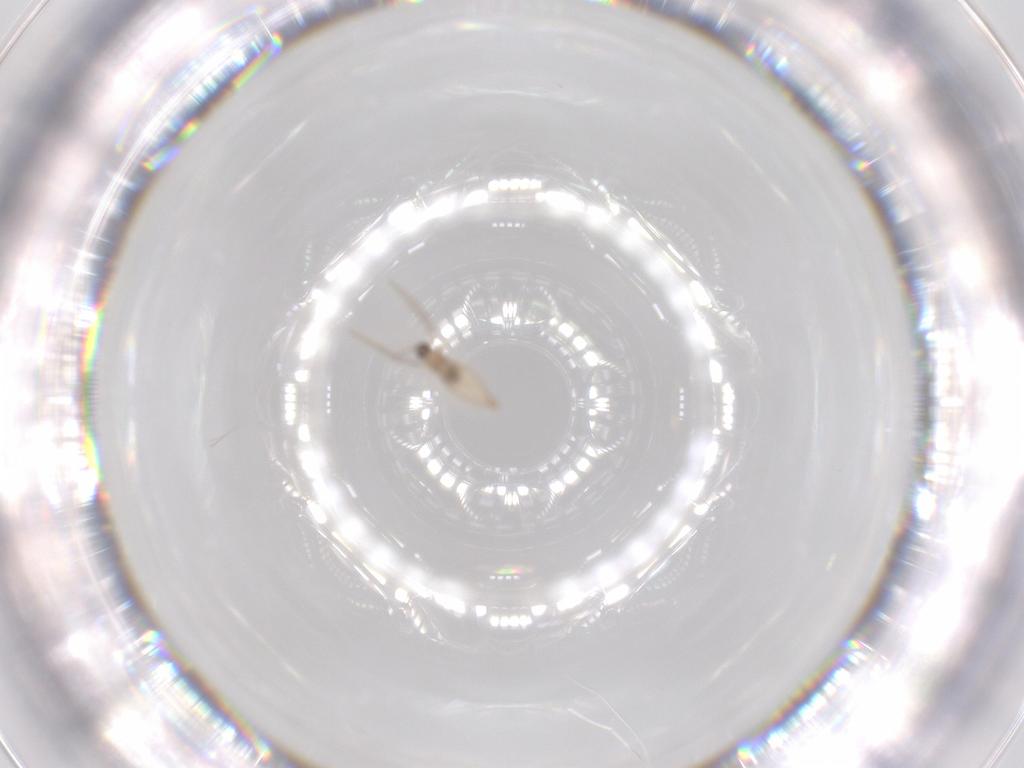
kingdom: Animalia
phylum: Arthropoda
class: Insecta
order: Diptera
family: Cecidomyiidae
